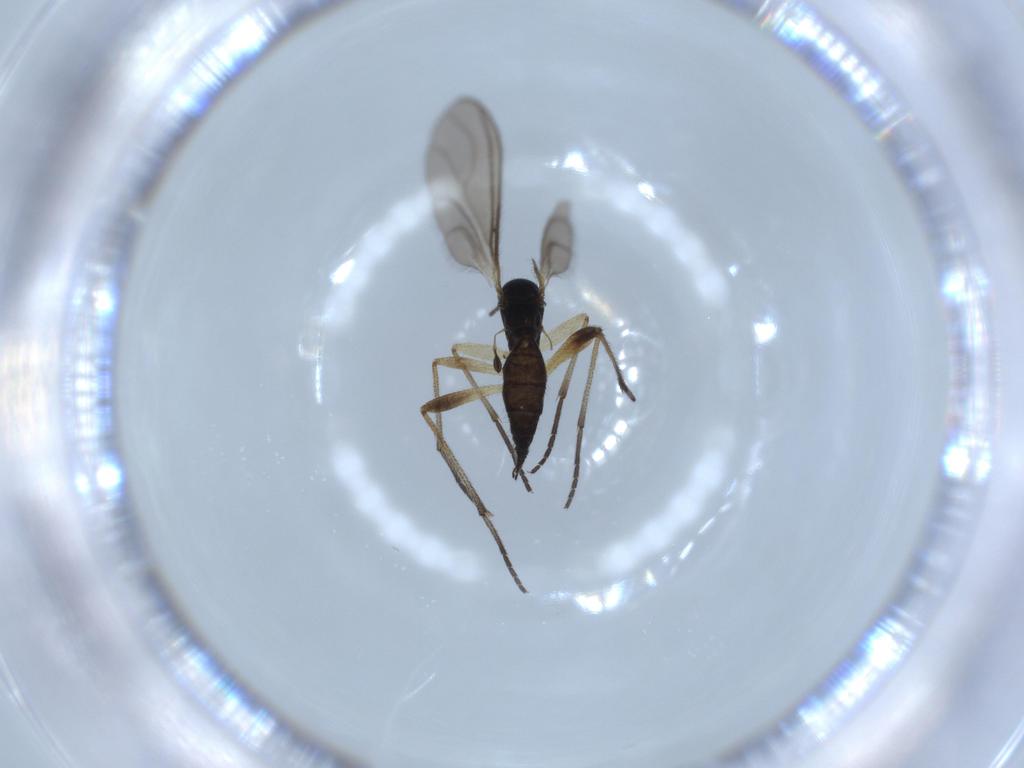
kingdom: Animalia
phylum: Arthropoda
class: Insecta
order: Diptera
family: Sciaridae
